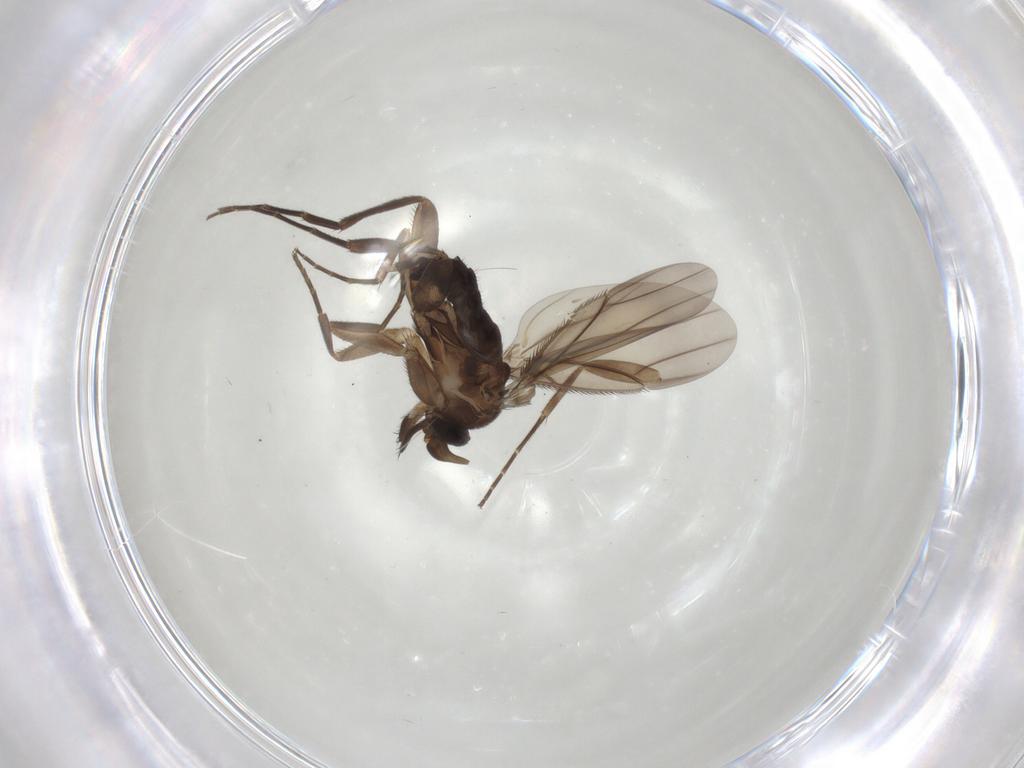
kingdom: Animalia
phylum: Arthropoda
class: Insecta
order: Diptera
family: Phoridae
